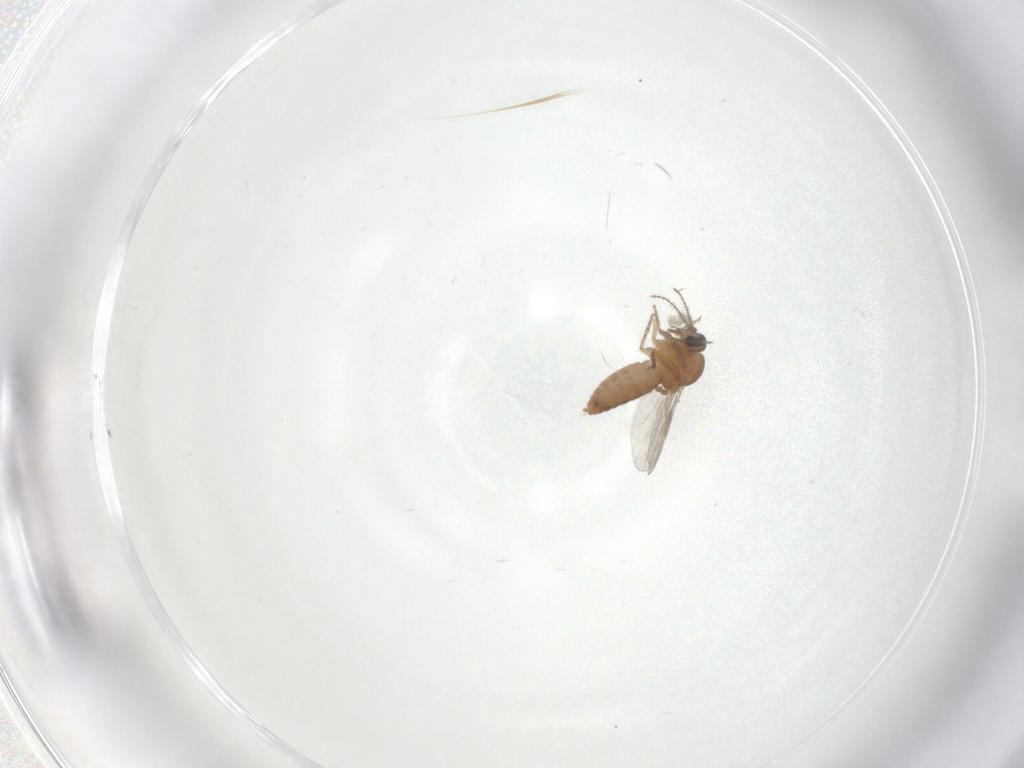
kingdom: Animalia
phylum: Arthropoda
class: Insecta
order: Diptera
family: Ceratopogonidae
